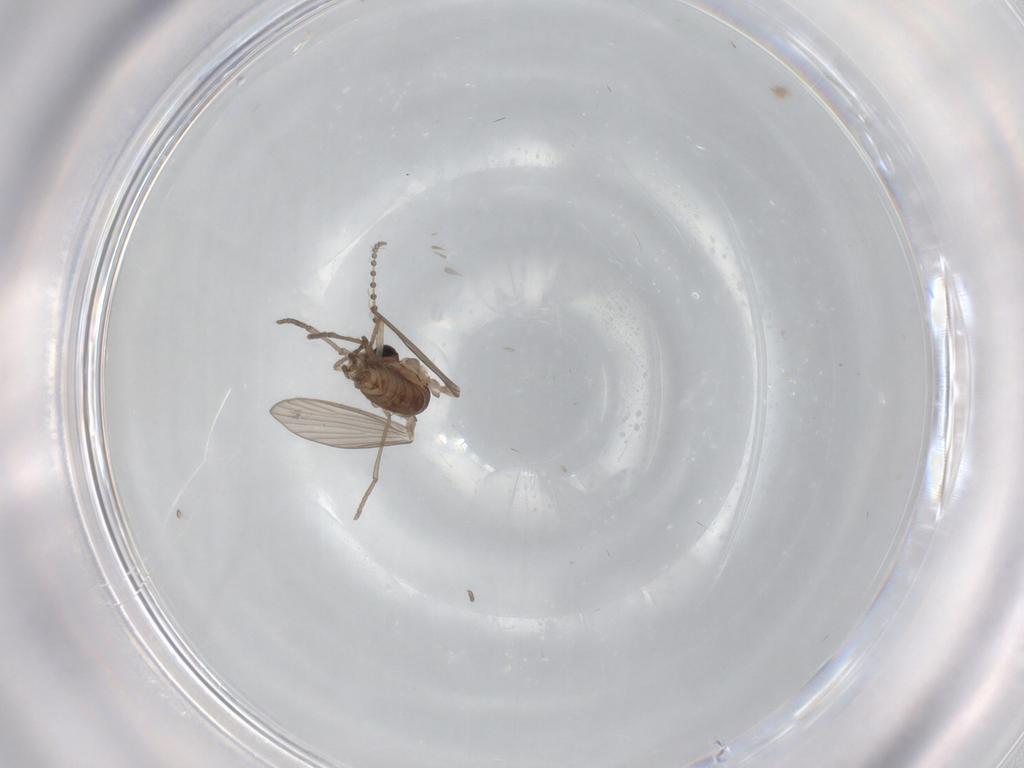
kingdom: Animalia
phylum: Arthropoda
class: Insecta
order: Diptera
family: Psychodidae
